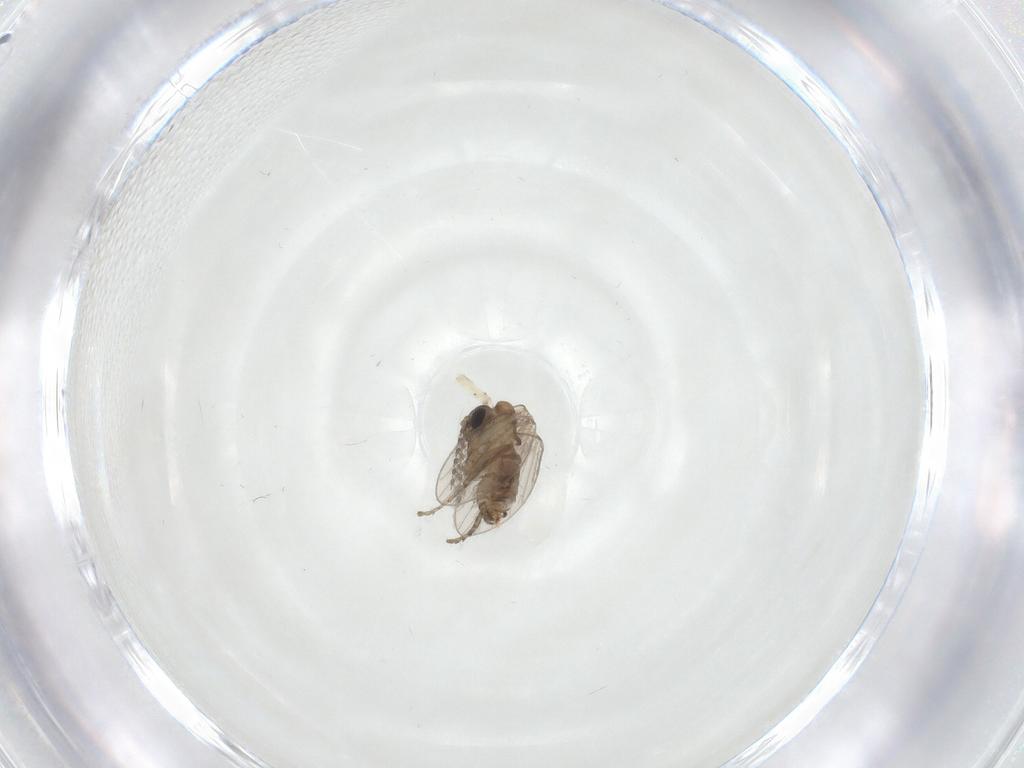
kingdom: Animalia
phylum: Arthropoda
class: Insecta
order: Diptera
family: Psychodidae
